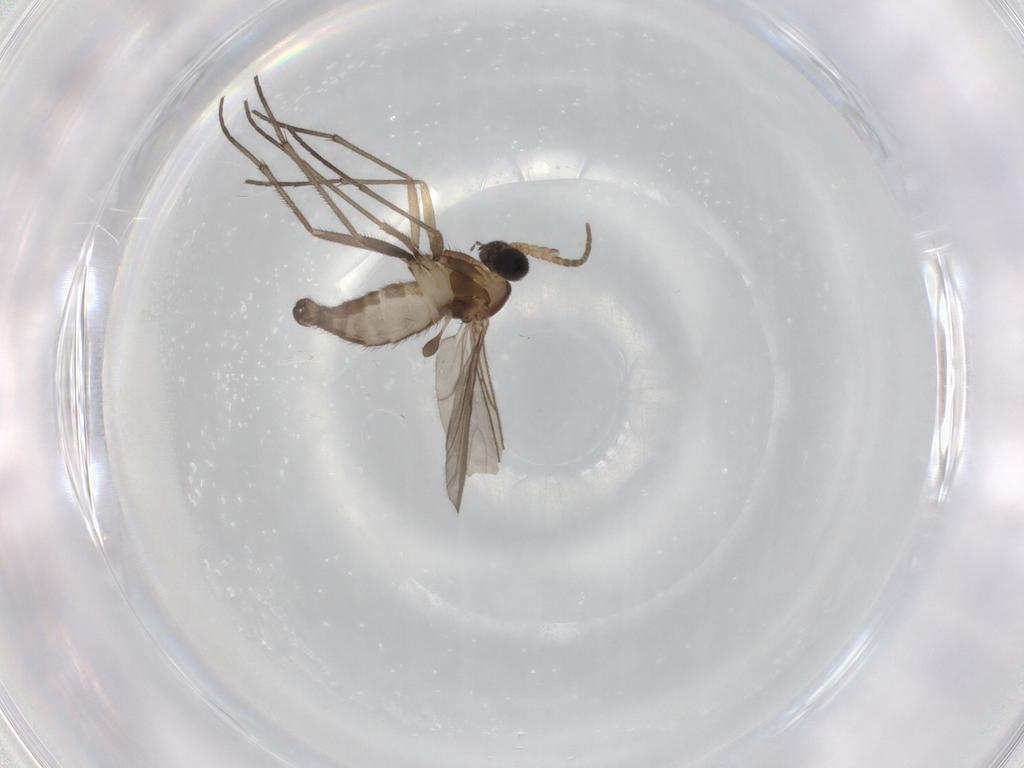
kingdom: Animalia
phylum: Arthropoda
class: Insecta
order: Diptera
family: Sciaridae
